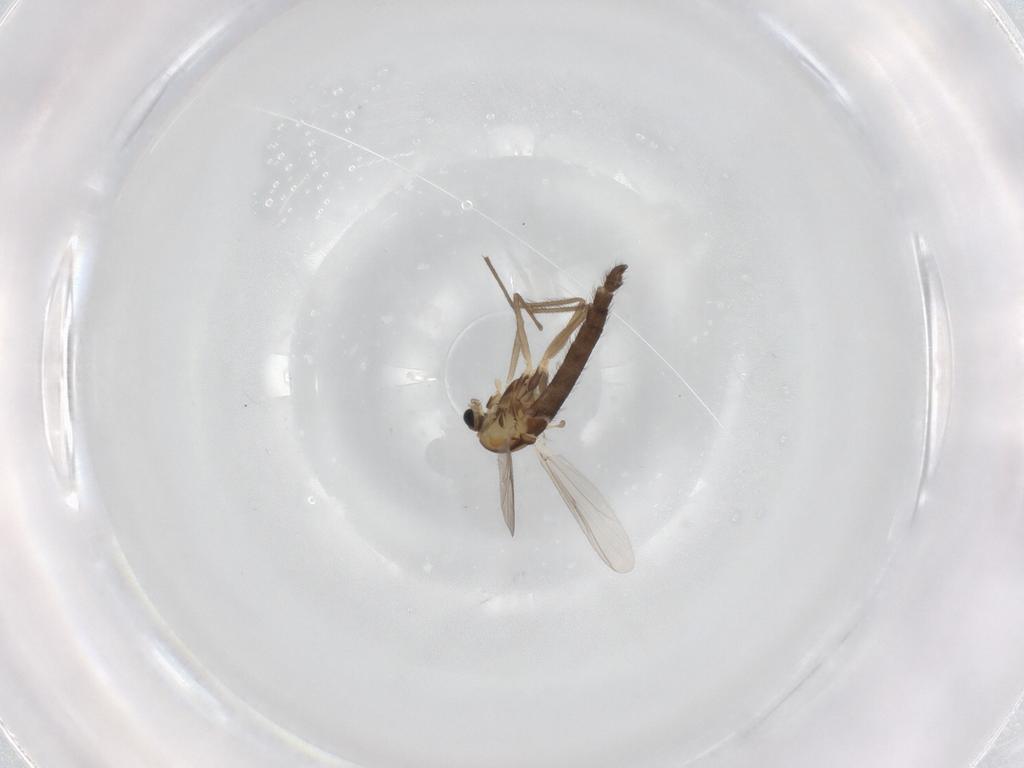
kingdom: Animalia
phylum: Arthropoda
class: Insecta
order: Diptera
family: Chironomidae
